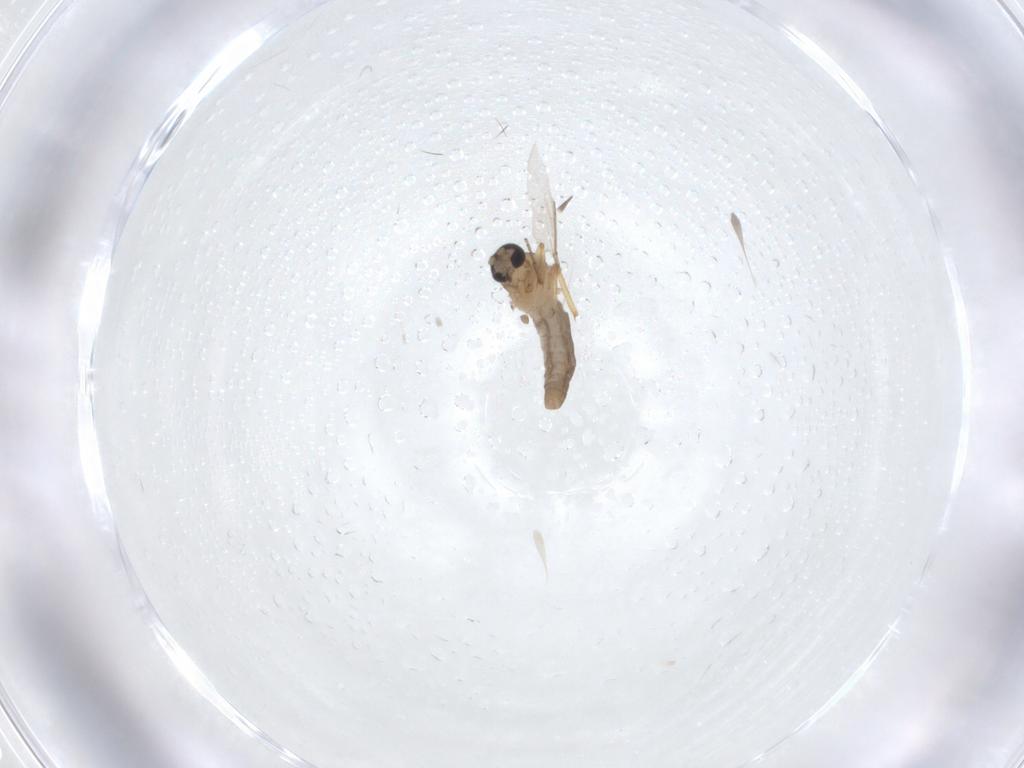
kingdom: Animalia
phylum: Arthropoda
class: Insecta
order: Diptera
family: Ceratopogonidae
